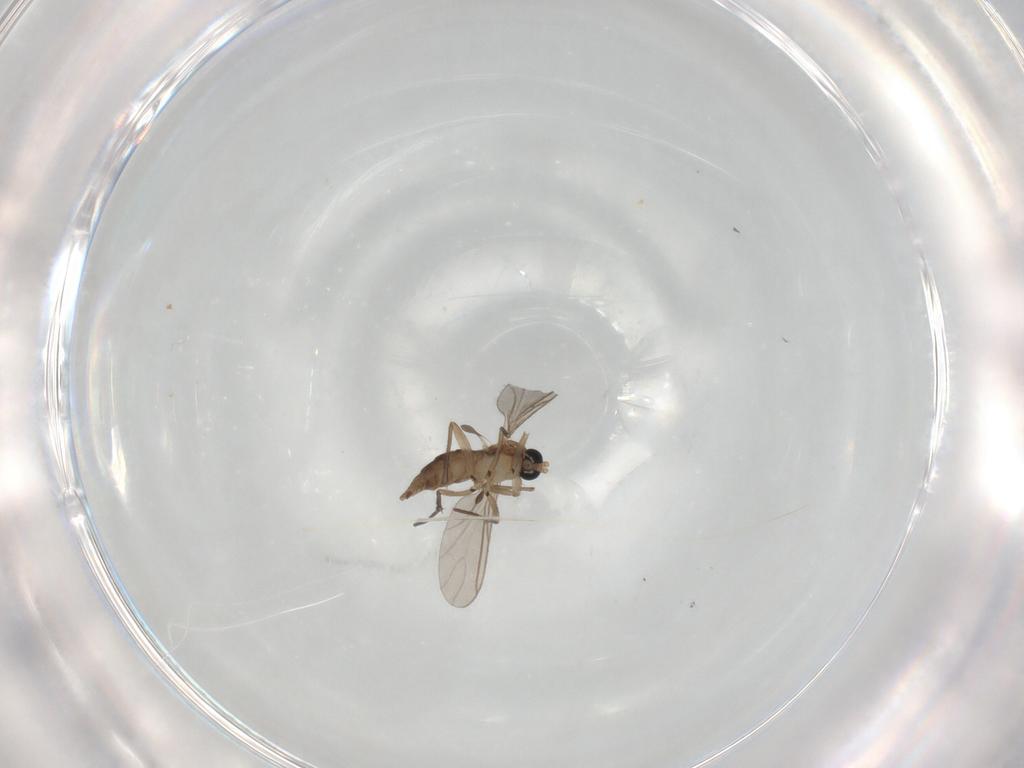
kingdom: Animalia
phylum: Arthropoda
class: Insecta
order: Diptera
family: Cecidomyiidae
